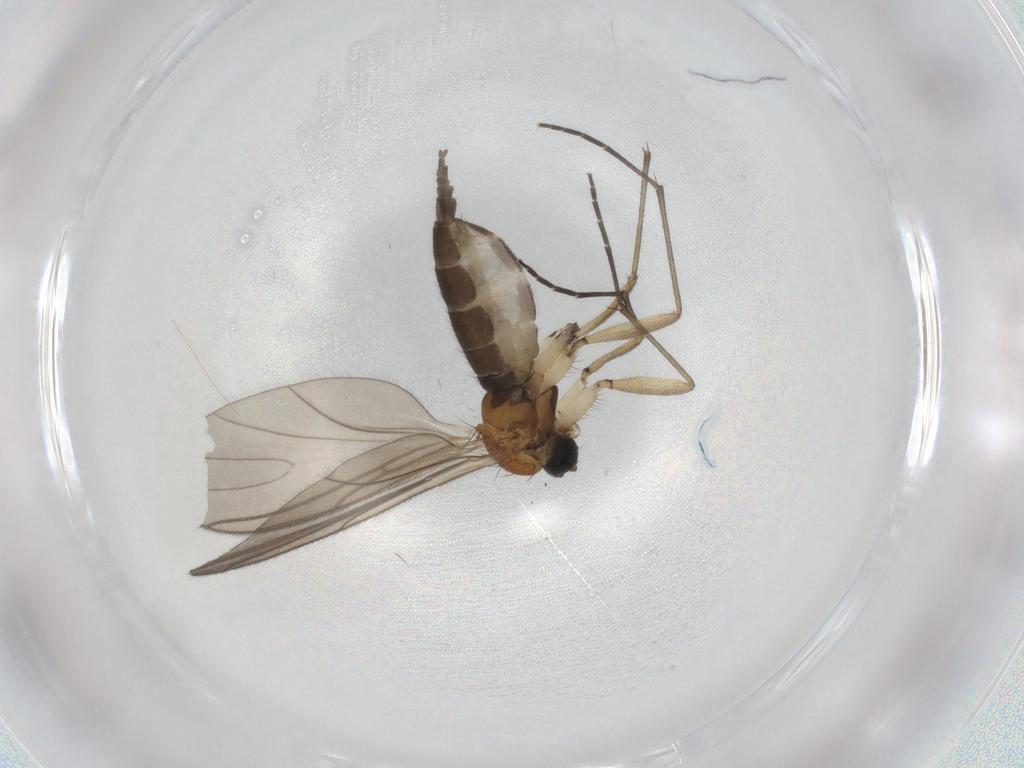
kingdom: Animalia
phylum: Arthropoda
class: Insecta
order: Diptera
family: Sciaridae
